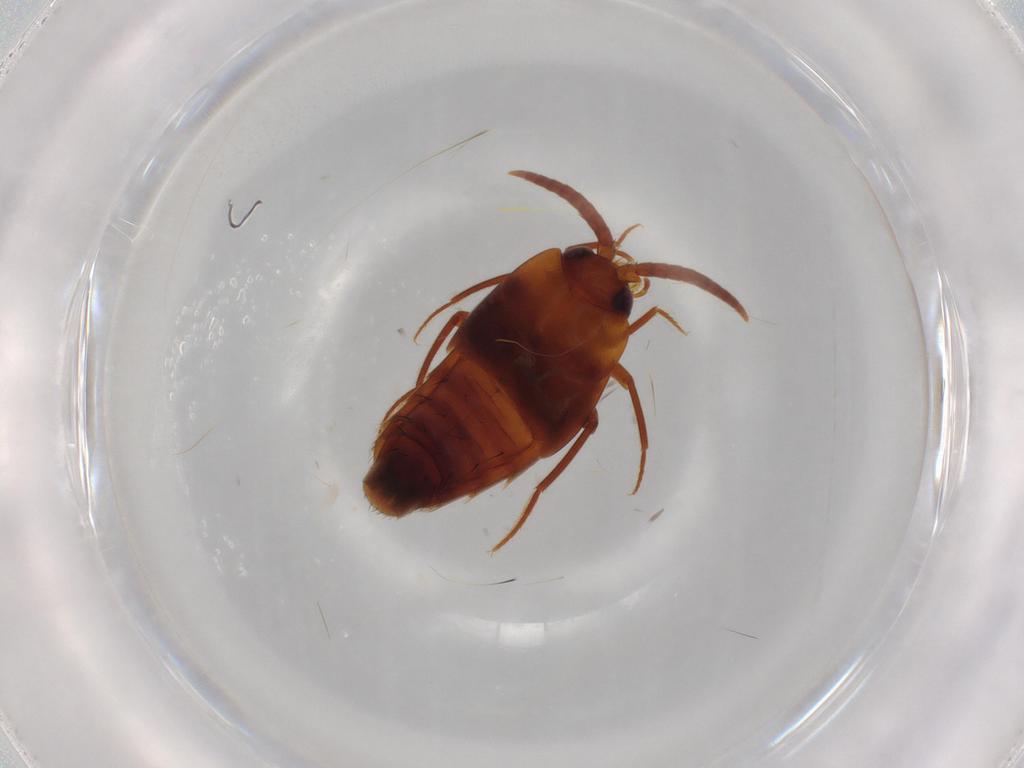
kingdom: Animalia
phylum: Arthropoda
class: Insecta
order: Coleoptera
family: Staphylinidae
